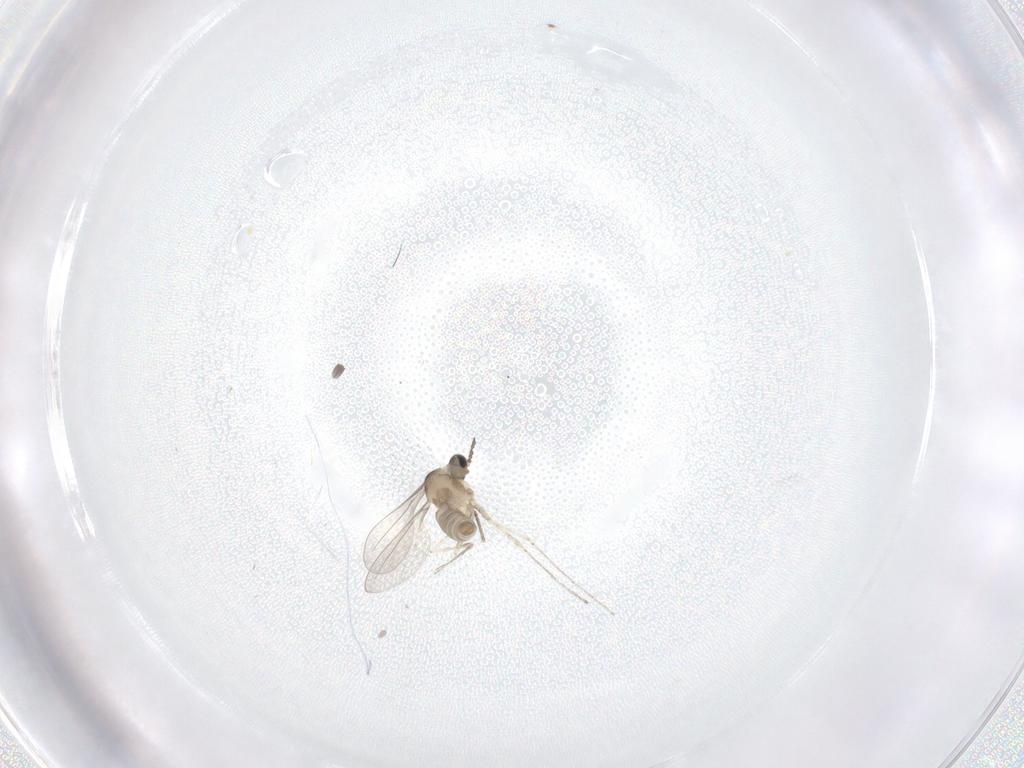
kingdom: Animalia
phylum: Arthropoda
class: Insecta
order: Diptera
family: Cecidomyiidae
